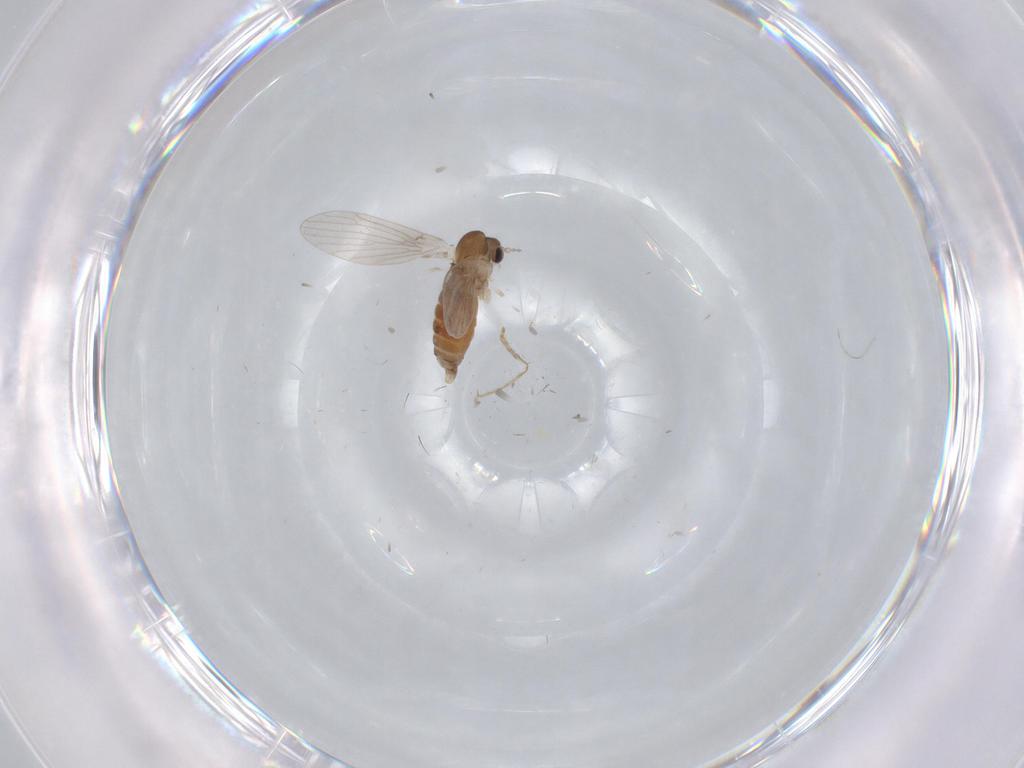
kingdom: Animalia
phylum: Arthropoda
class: Insecta
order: Diptera
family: Cecidomyiidae
